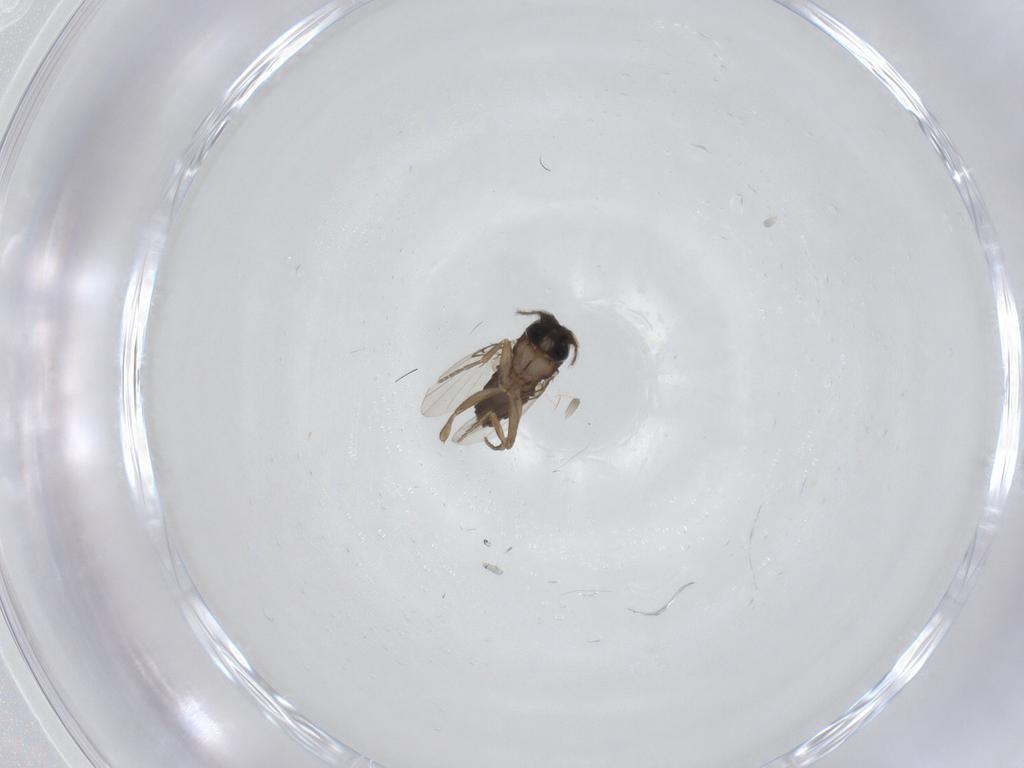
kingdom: Animalia
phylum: Arthropoda
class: Insecta
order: Diptera
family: Phoridae
